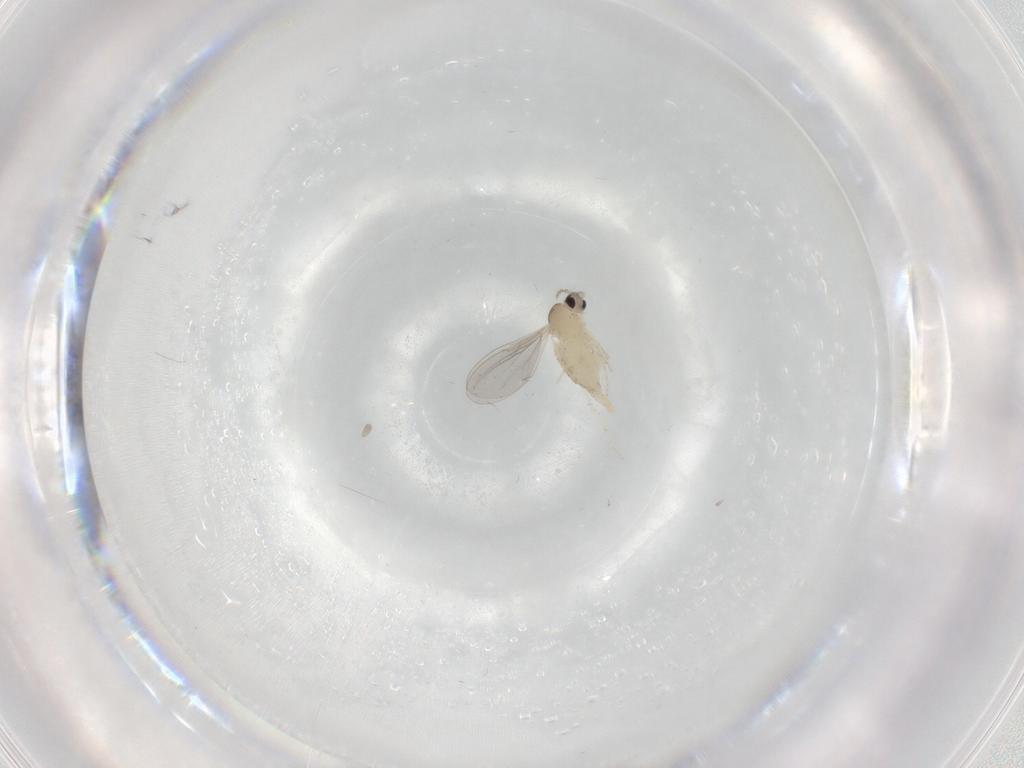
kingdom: Animalia
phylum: Arthropoda
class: Insecta
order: Diptera
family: Cecidomyiidae
